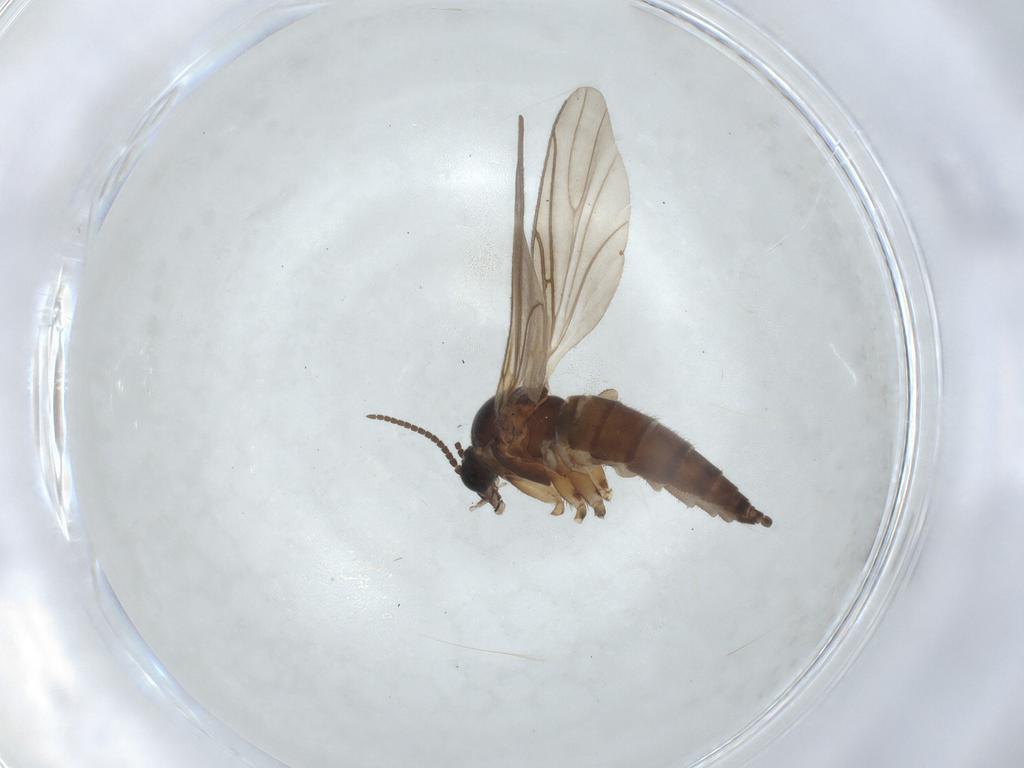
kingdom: Animalia
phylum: Arthropoda
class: Insecta
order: Diptera
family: Sciaridae
